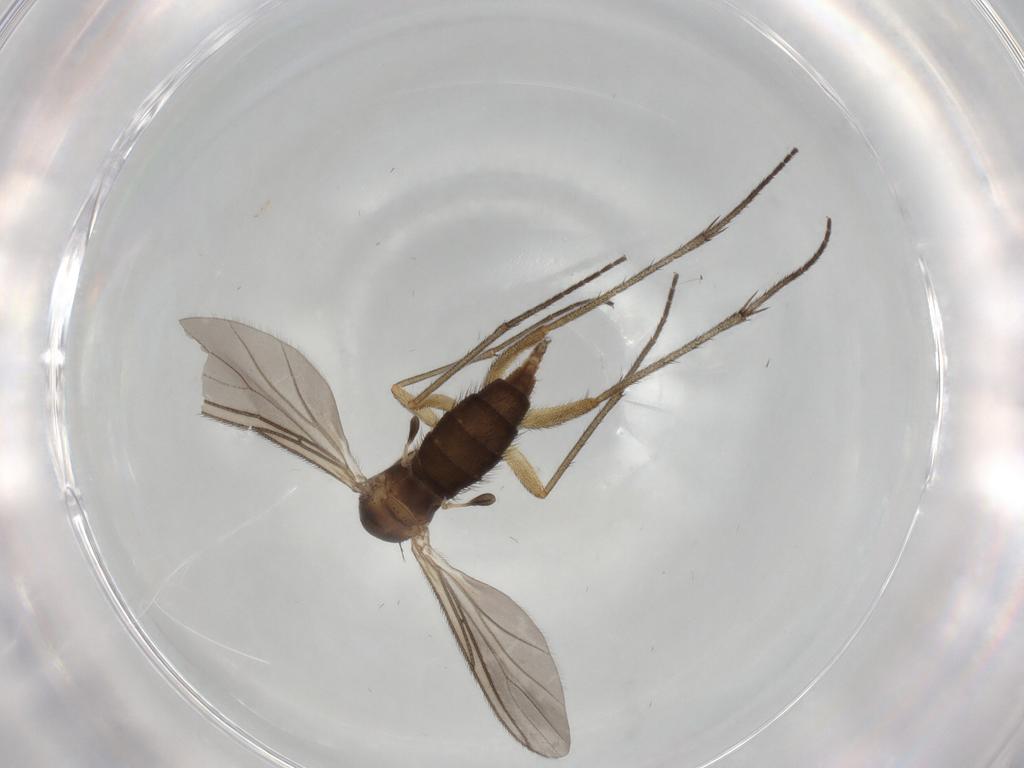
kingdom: Animalia
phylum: Arthropoda
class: Insecta
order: Diptera
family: Sciaridae
